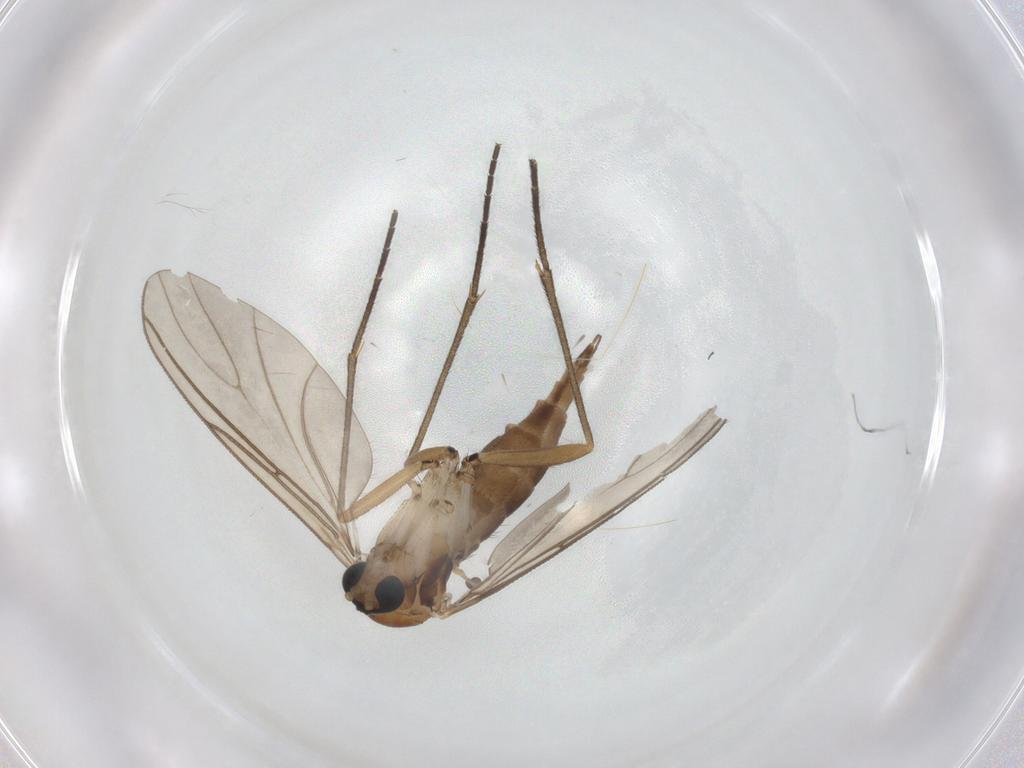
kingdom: Animalia
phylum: Arthropoda
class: Insecta
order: Diptera
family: Sciaridae
